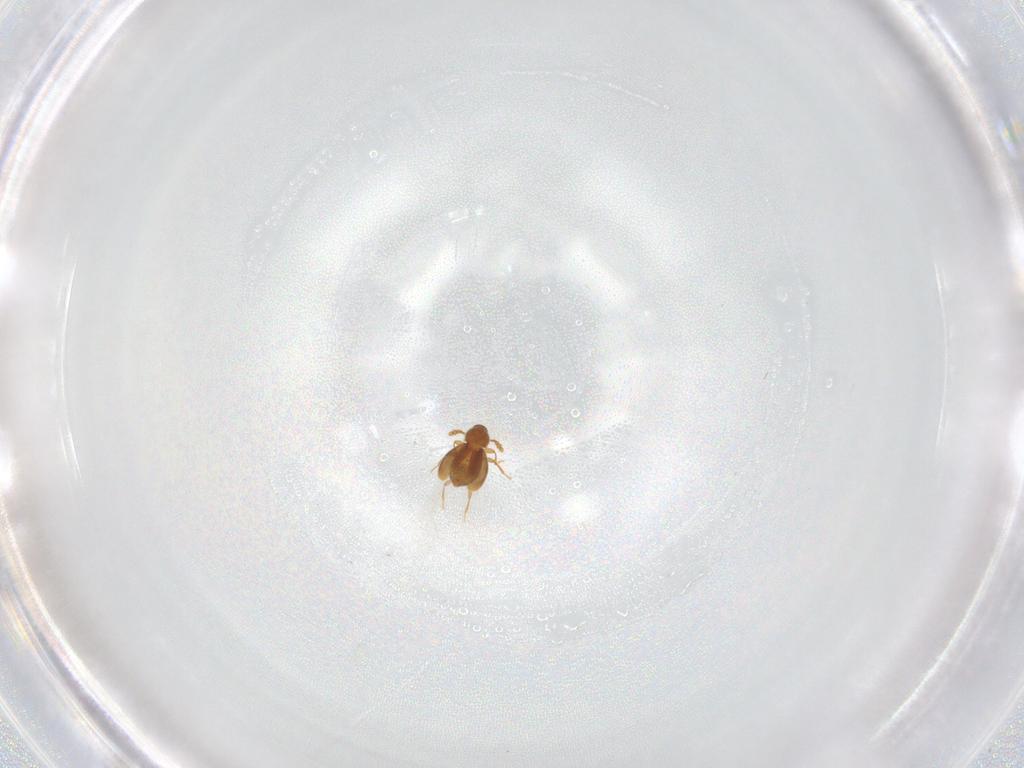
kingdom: Animalia
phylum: Arthropoda
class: Insecta
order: Coleoptera
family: Staphylinidae
